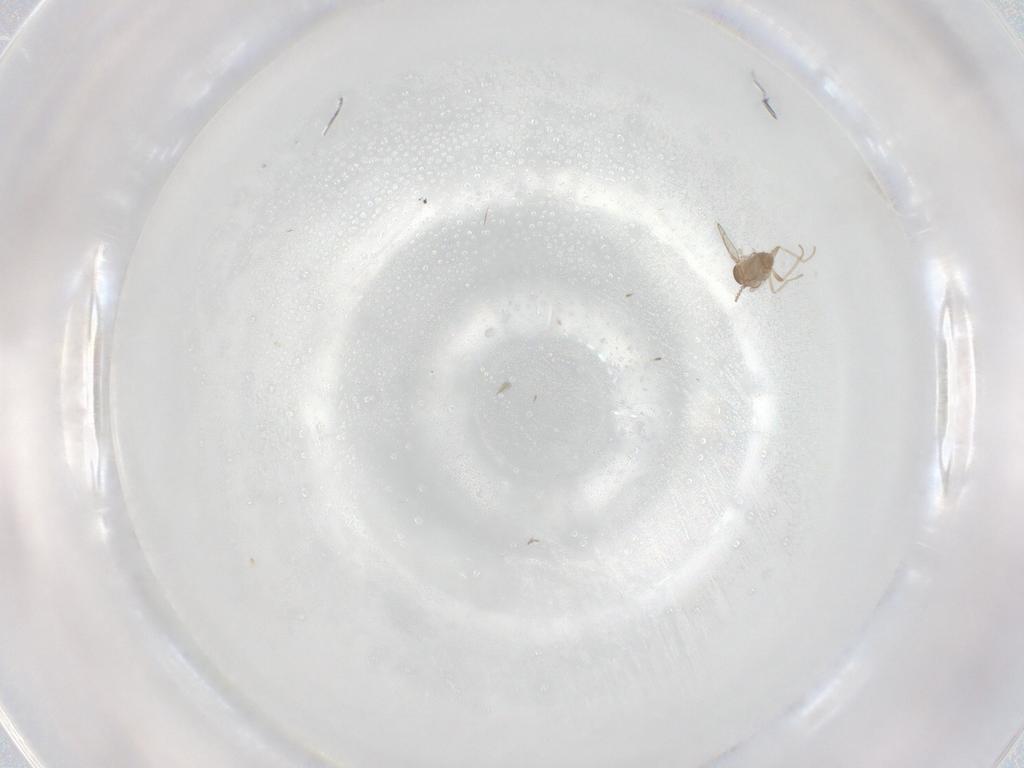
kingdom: Animalia
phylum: Arthropoda
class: Insecta
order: Diptera
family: Cecidomyiidae
